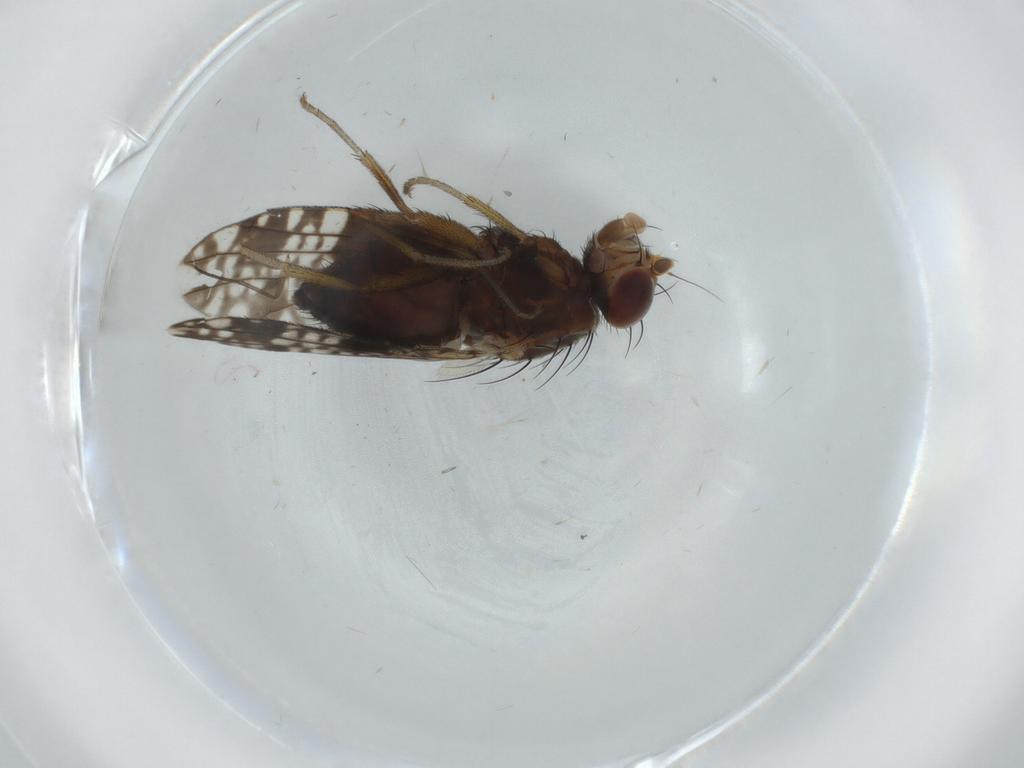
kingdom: Animalia
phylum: Arthropoda
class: Insecta
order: Diptera
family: Tephritidae
